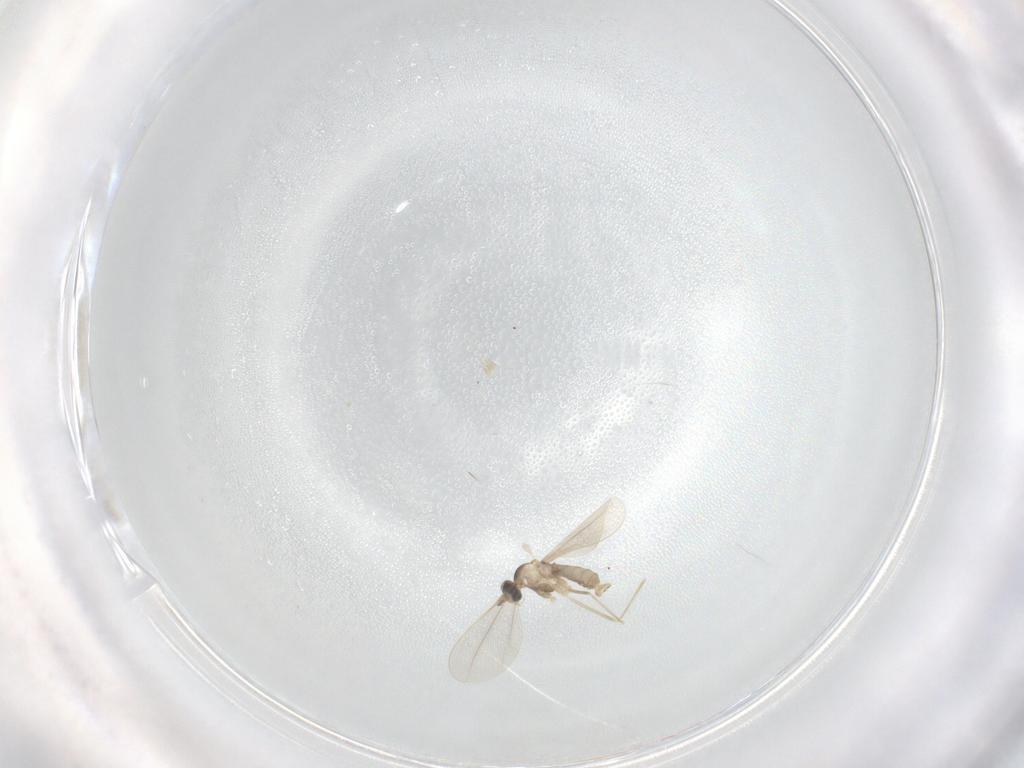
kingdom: Animalia
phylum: Arthropoda
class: Insecta
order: Diptera
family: Cecidomyiidae
